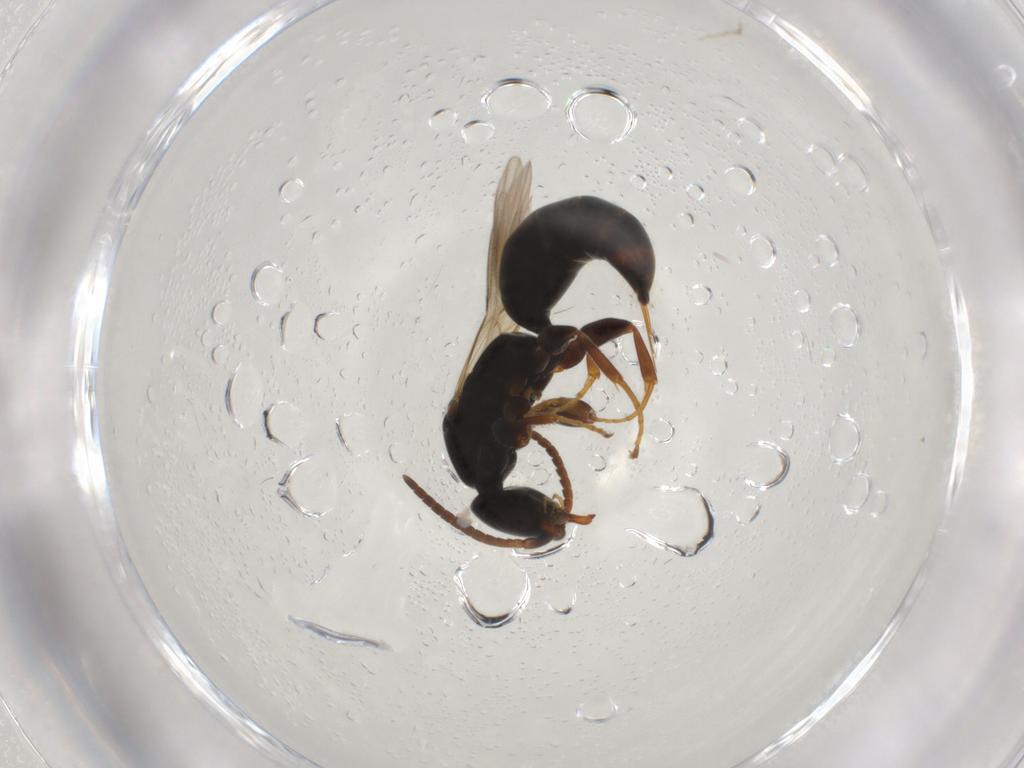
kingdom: Animalia
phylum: Arthropoda
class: Insecta
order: Hymenoptera
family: Bethylidae
